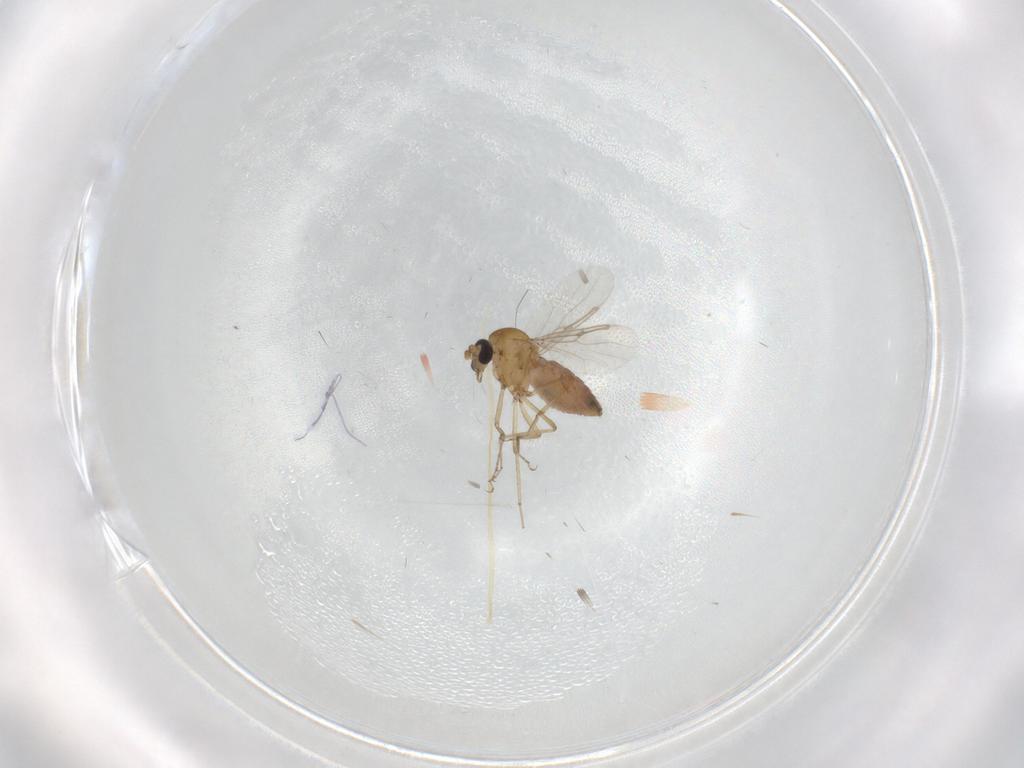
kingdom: Animalia
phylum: Arthropoda
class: Insecta
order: Diptera
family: Ceratopogonidae
